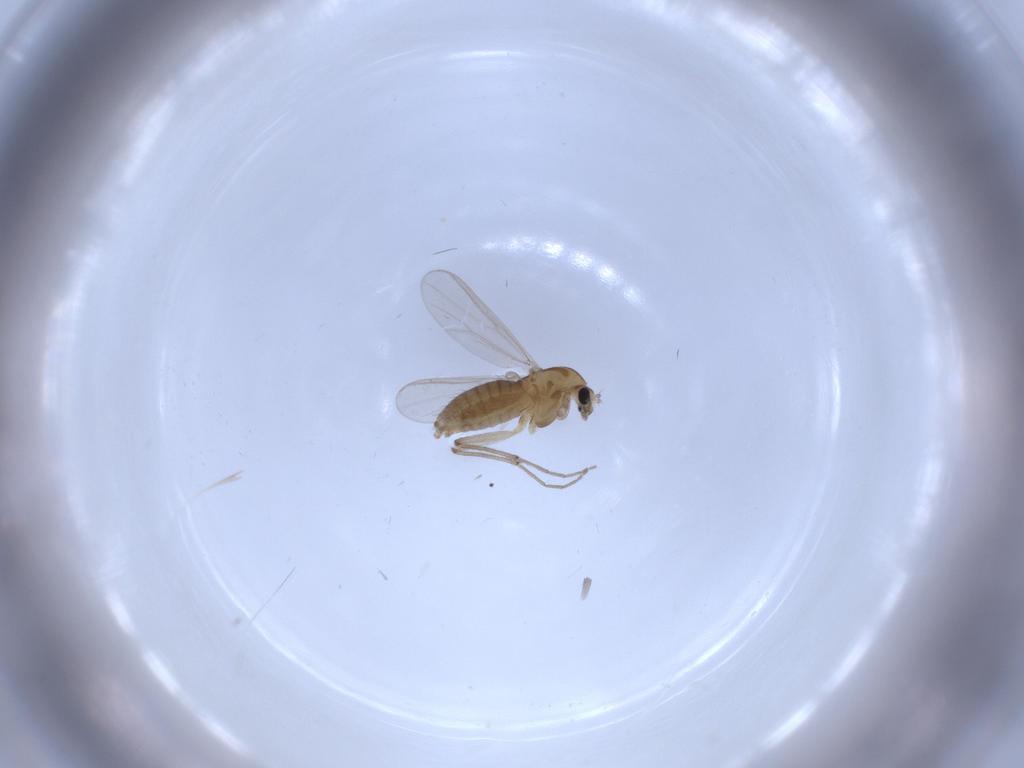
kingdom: Animalia
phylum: Arthropoda
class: Insecta
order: Diptera
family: Chironomidae
